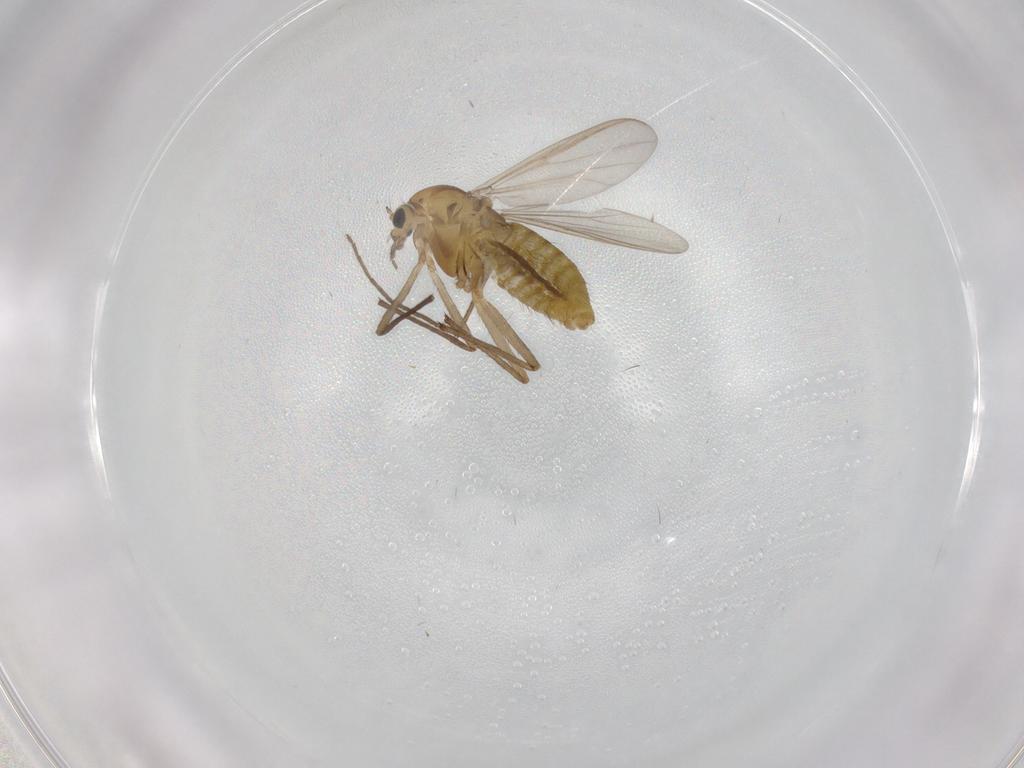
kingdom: Animalia
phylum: Arthropoda
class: Insecta
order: Diptera
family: Chironomidae
